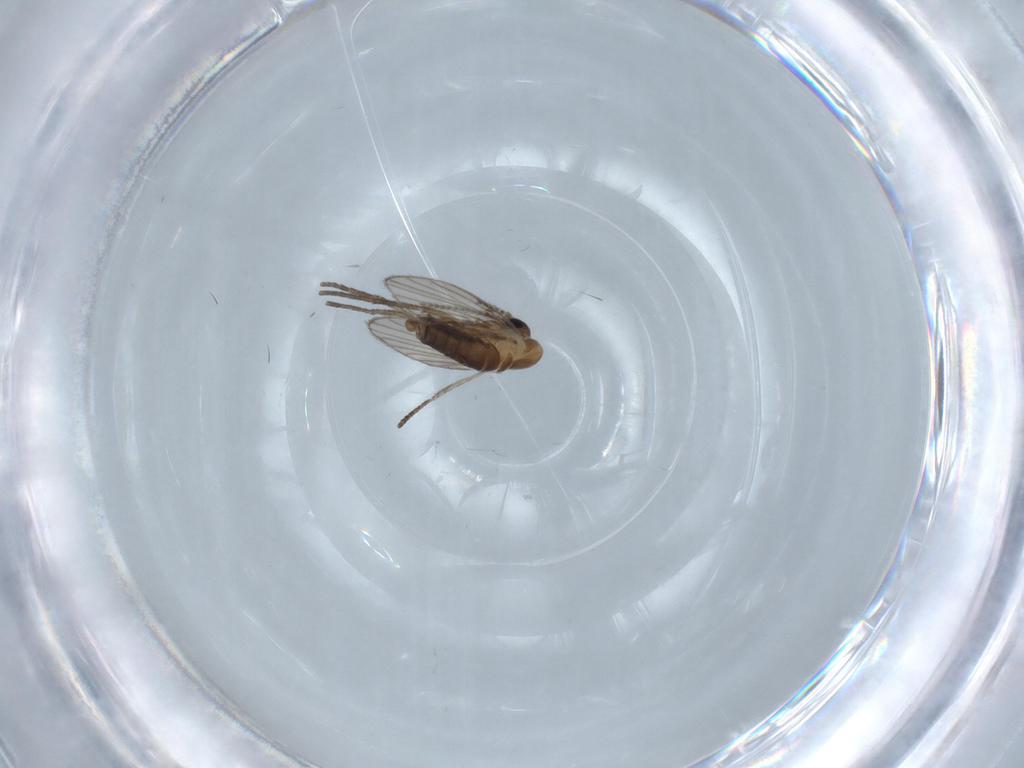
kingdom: Animalia
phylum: Arthropoda
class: Insecta
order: Diptera
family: Psychodidae
